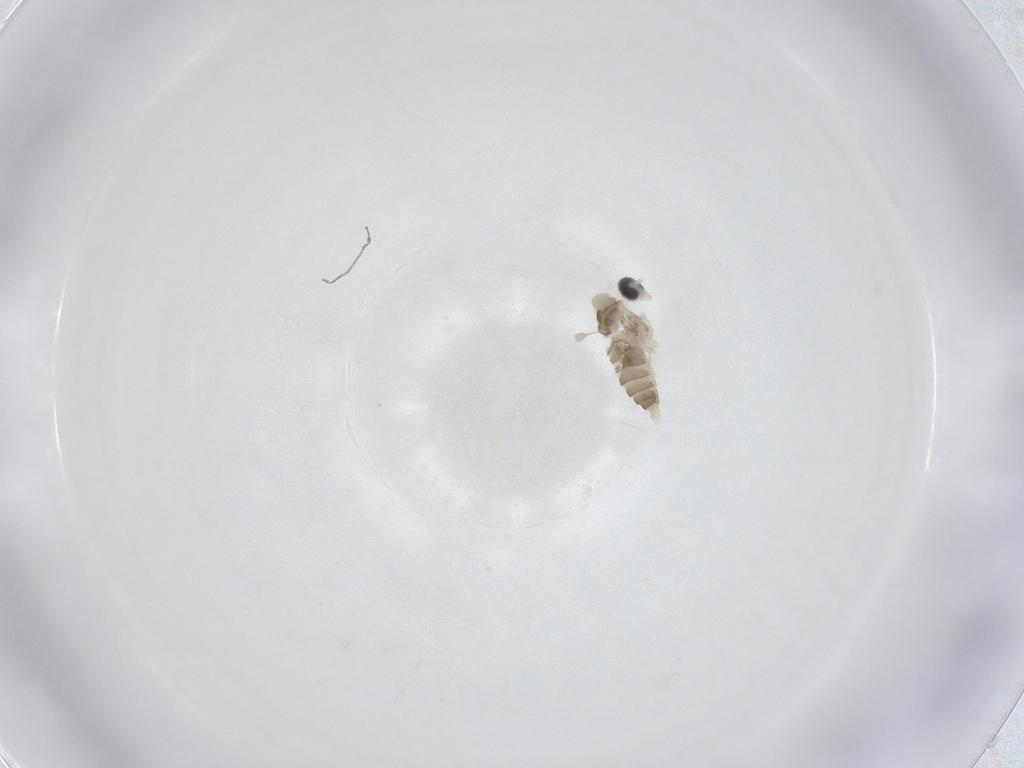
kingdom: Animalia
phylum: Arthropoda
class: Insecta
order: Diptera
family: Cecidomyiidae
